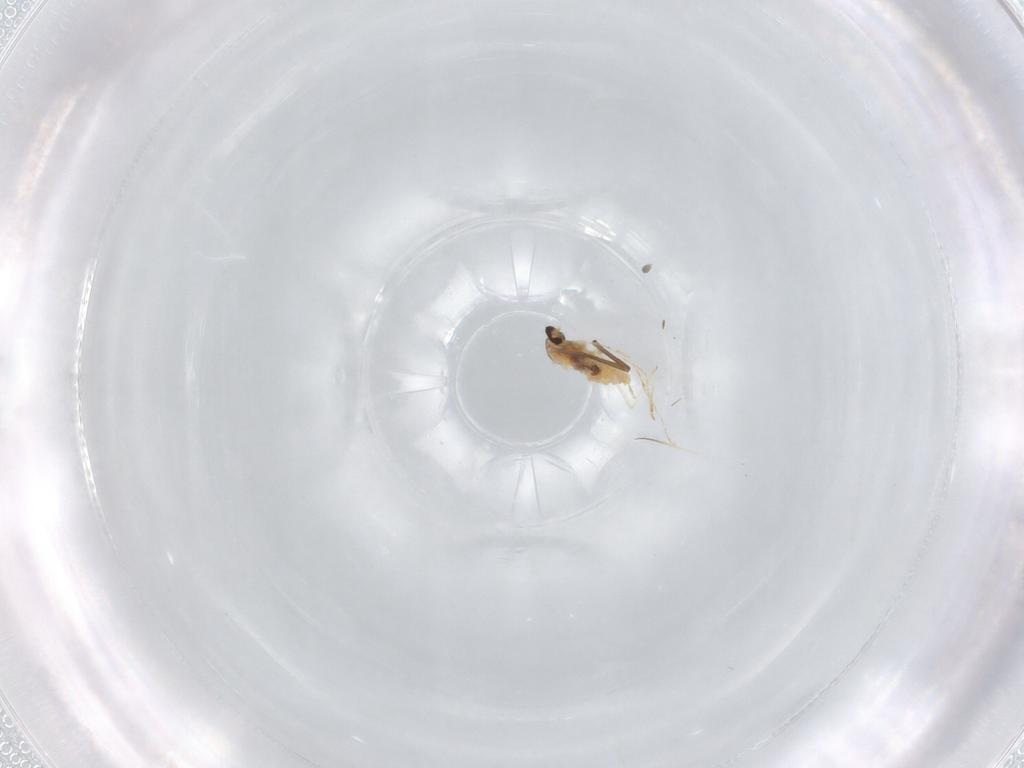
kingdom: Animalia
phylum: Arthropoda
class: Insecta
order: Diptera
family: Cecidomyiidae
